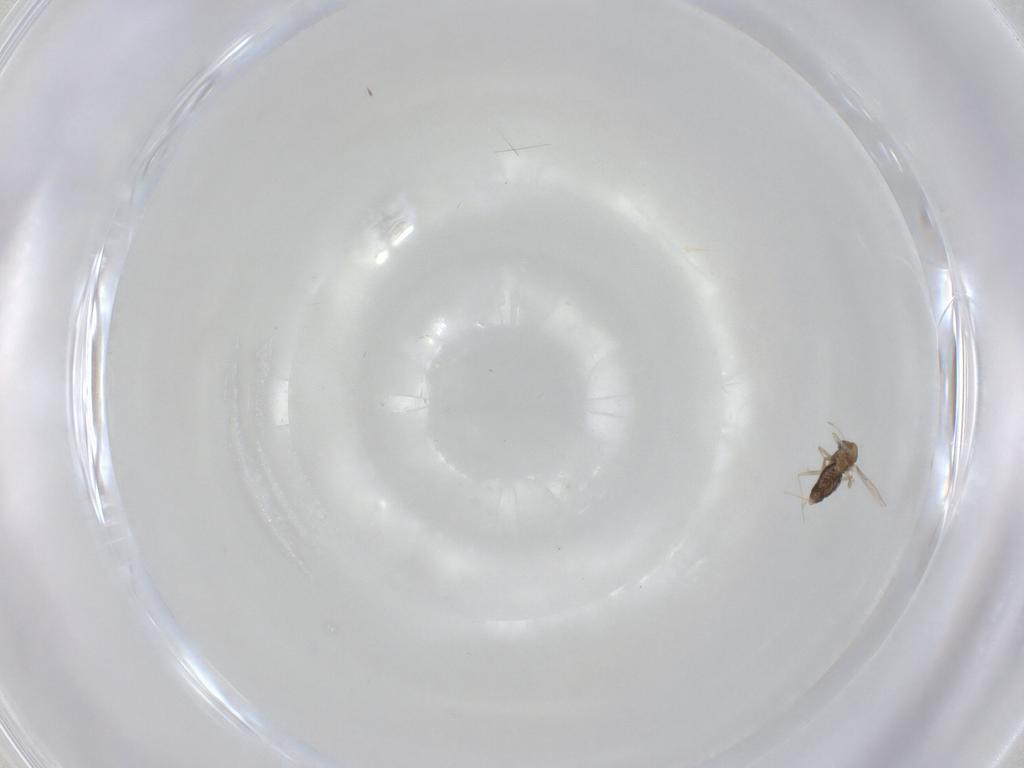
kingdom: Animalia
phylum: Arthropoda
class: Insecta
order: Diptera
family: Chironomidae
